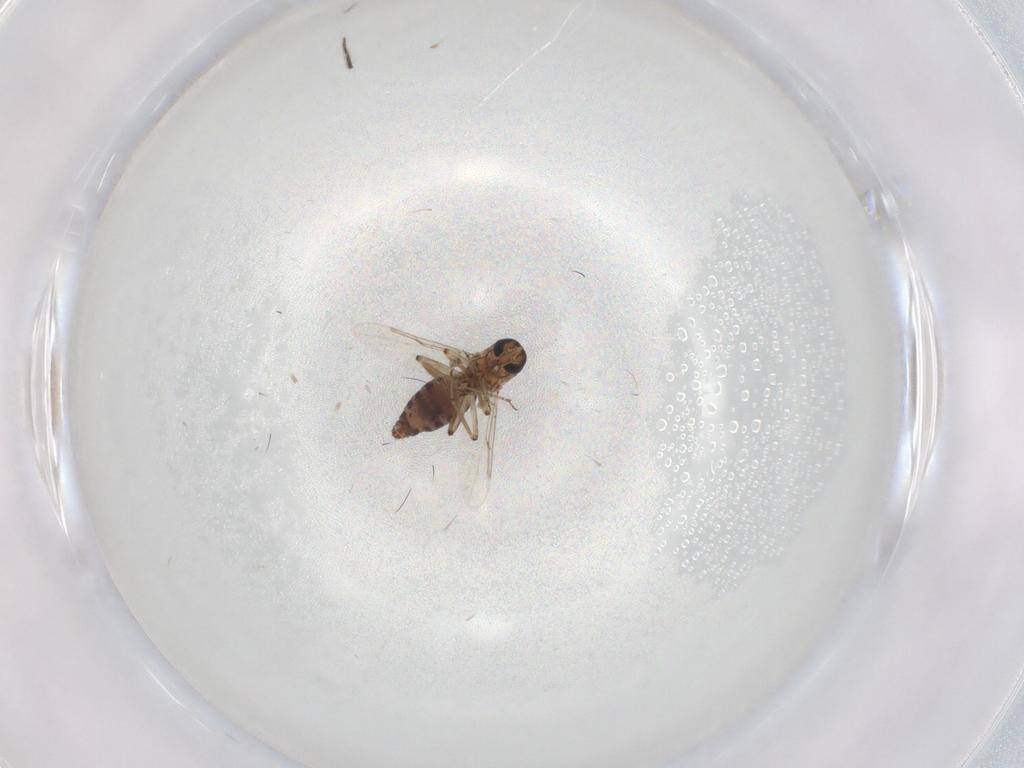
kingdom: Animalia
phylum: Arthropoda
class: Insecta
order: Diptera
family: Ceratopogonidae
